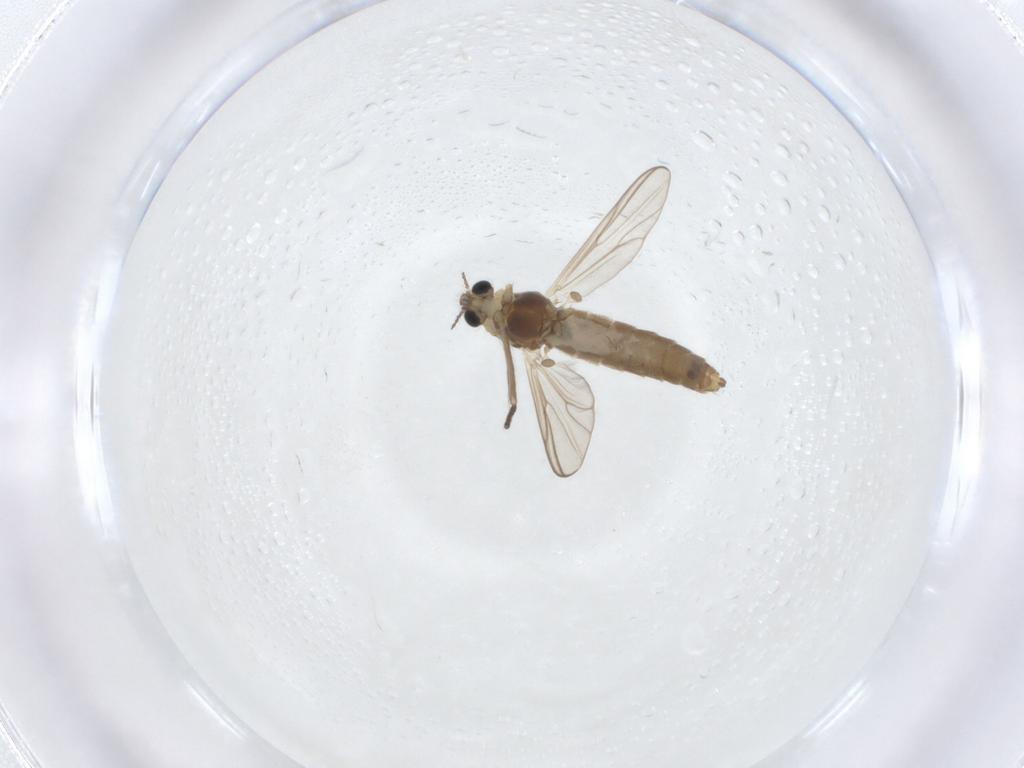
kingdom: Animalia
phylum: Arthropoda
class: Insecta
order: Diptera
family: Chironomidae
